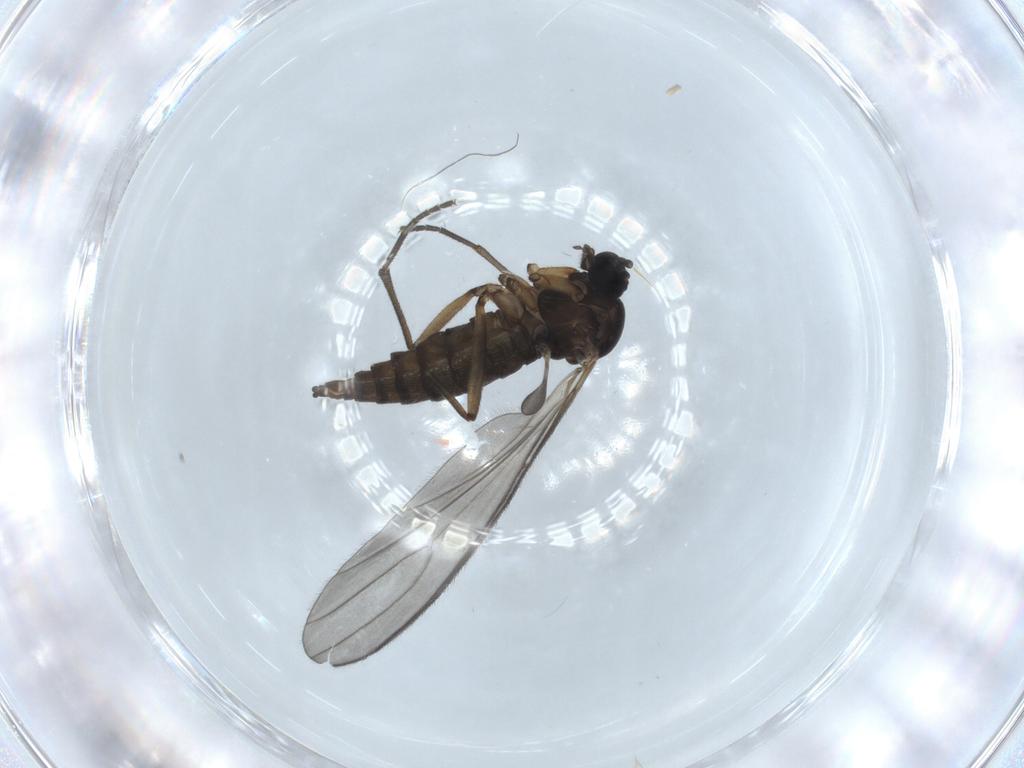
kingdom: Animalia
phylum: Arthropoda
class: Insecta
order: Diptera
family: Sciaridae
